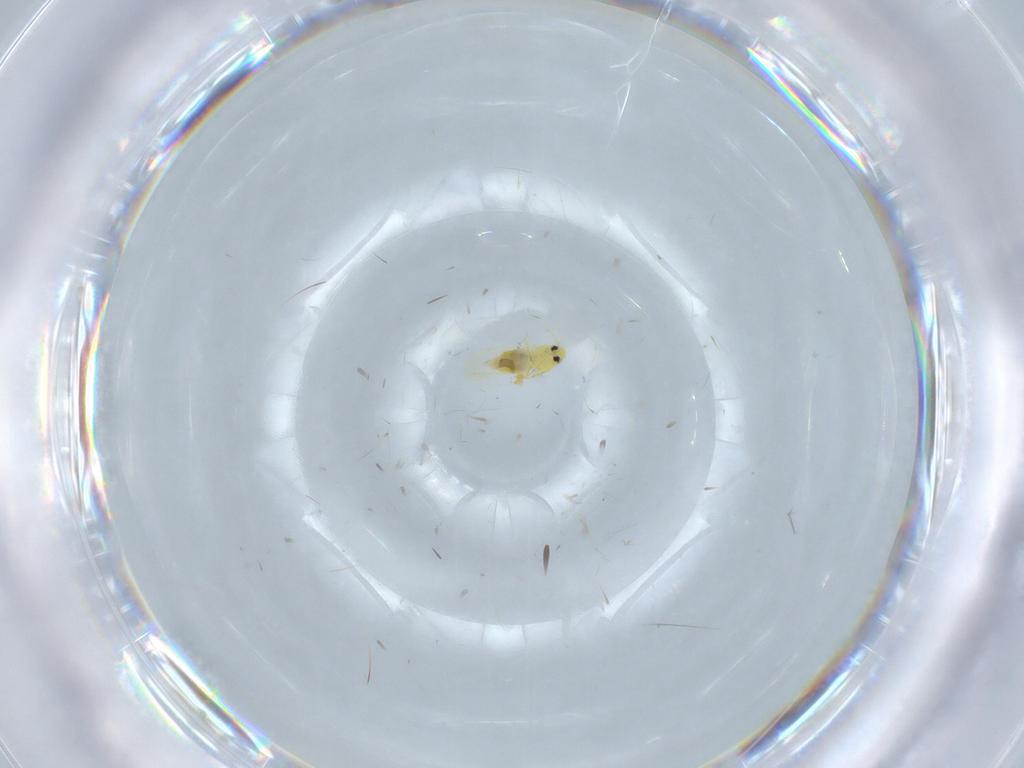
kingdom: Animalia
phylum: Arthropoda
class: Insecta
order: Hemiptera
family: Aleyrodidae
